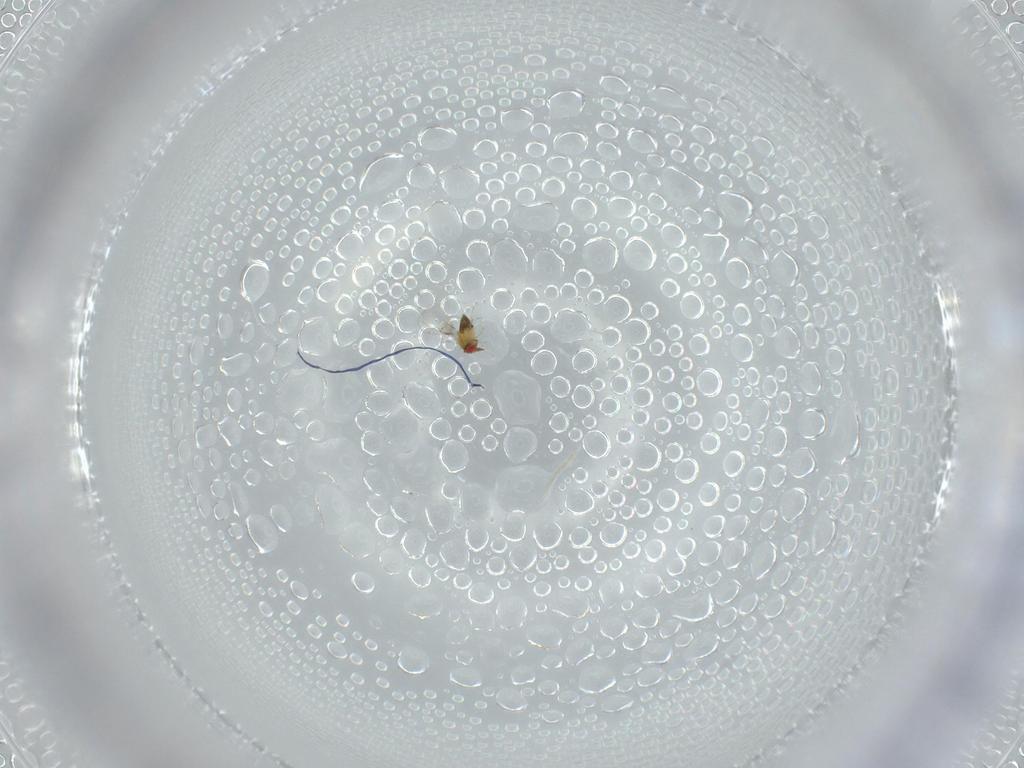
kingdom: Animalia
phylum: Arthropoda
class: Insecta
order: Hymenoptera
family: Trichogrammatidae
